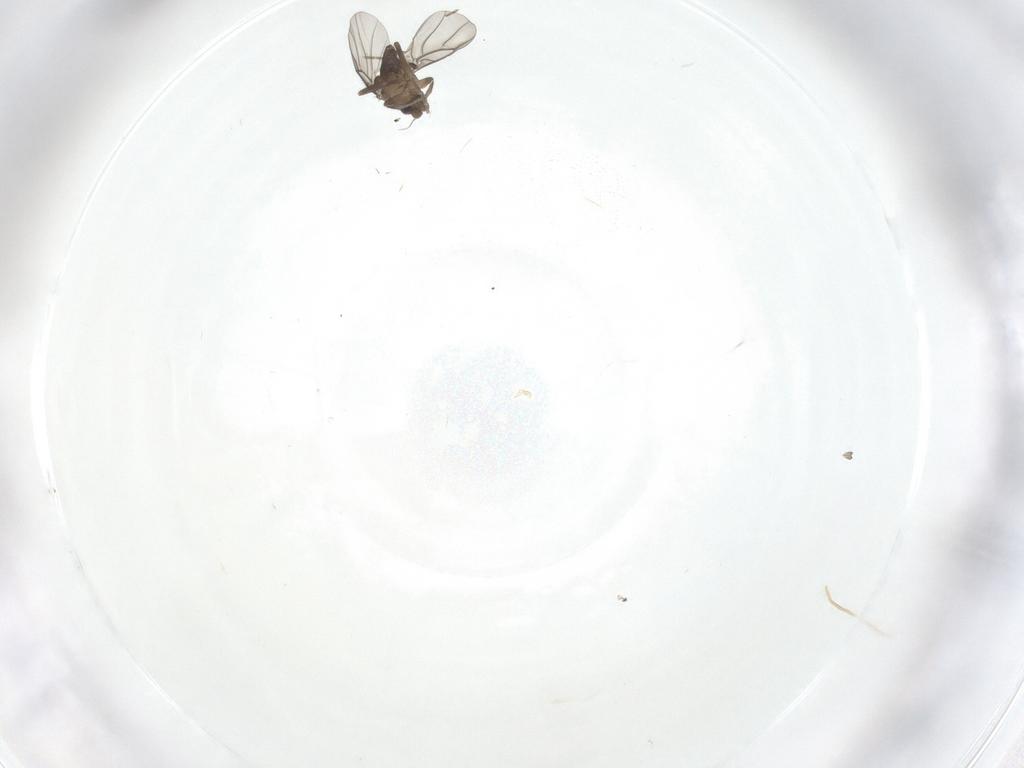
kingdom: Animalia
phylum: Arthropoda
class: Insecta
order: Diptera
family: Cecidomyiidae
